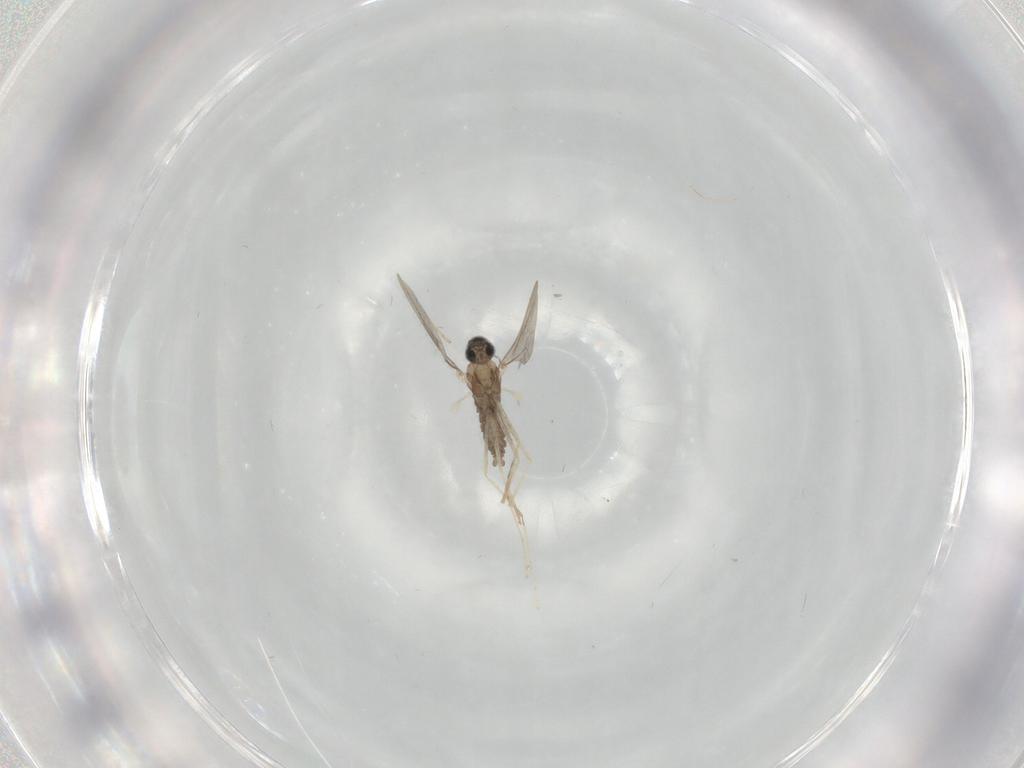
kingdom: Animalia
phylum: Arthropoda
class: Insecta
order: Diptera
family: Cecidomyiidae
